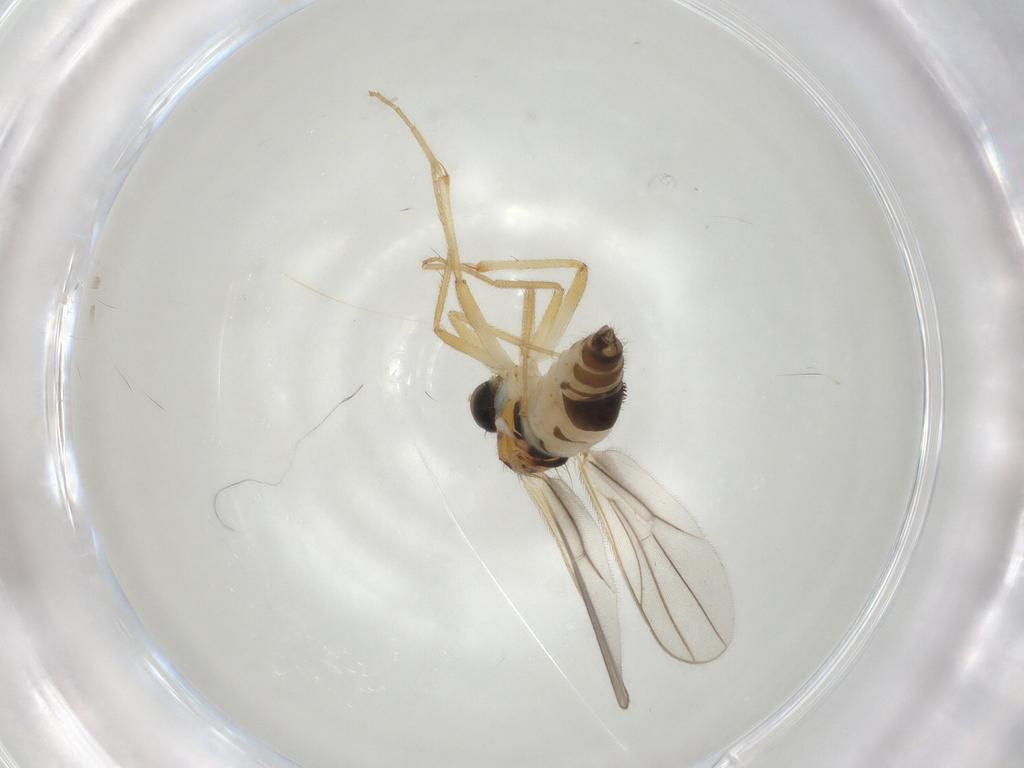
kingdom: Animalia
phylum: Arthropoda
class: Insecta
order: Diptera
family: Hybotidae
